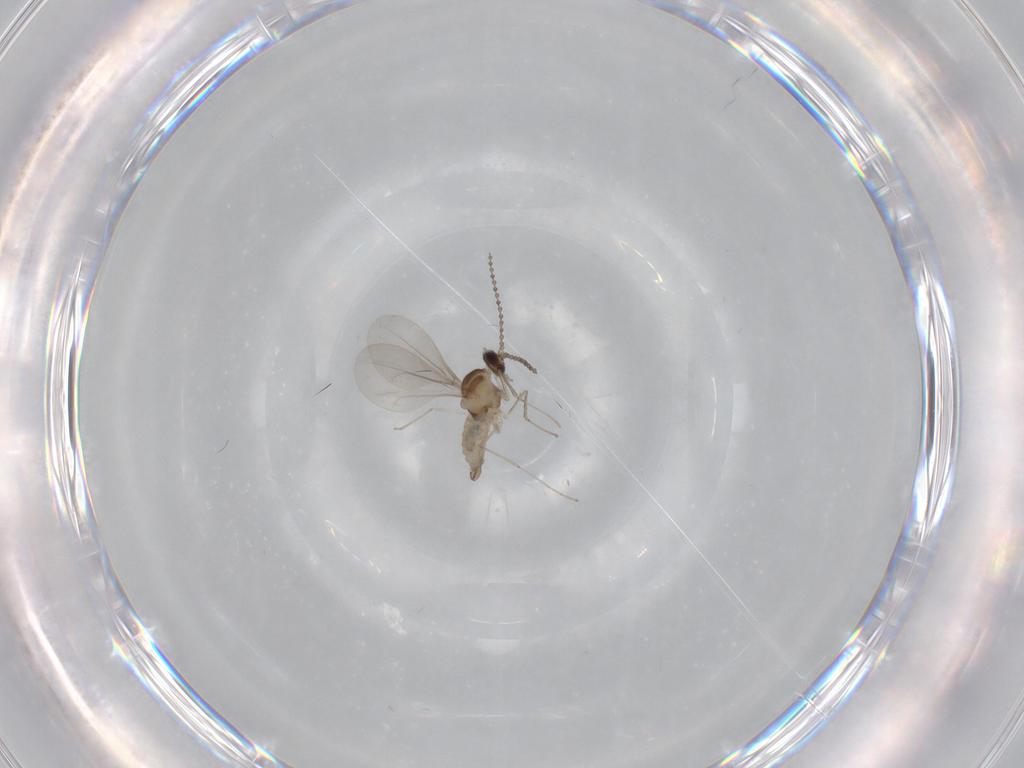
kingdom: Animalia
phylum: Arthropoda
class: Insecta
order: Diptera
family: Cecidomyiidae
